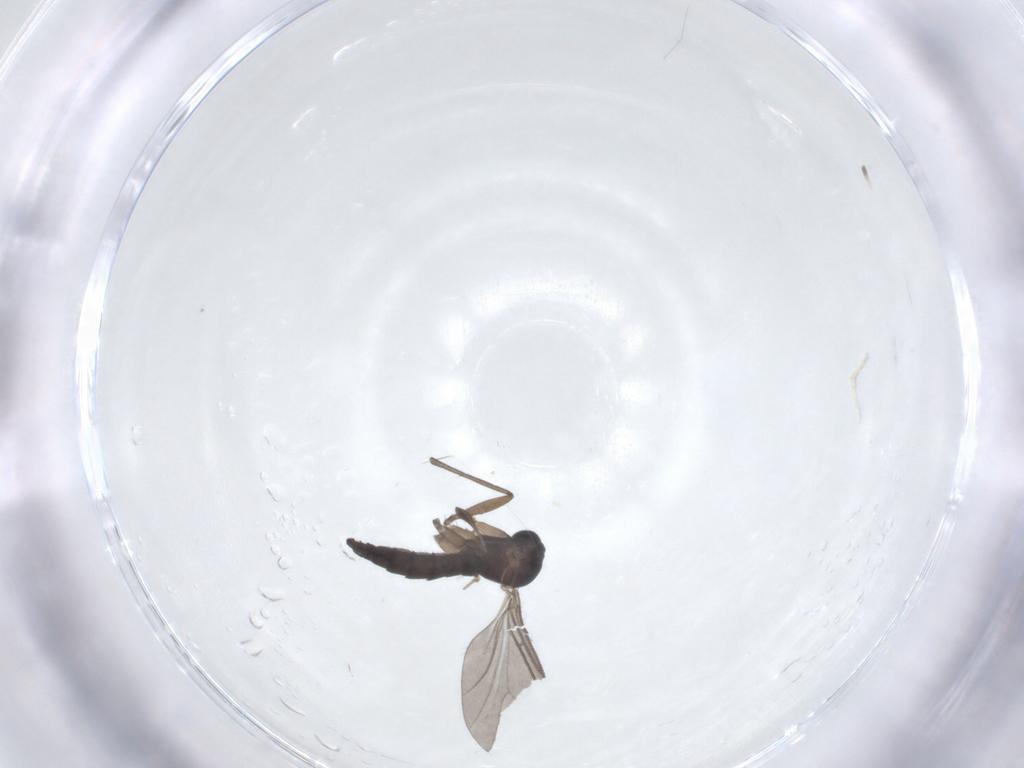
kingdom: Animalia
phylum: Arthropoda
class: Insecta
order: Diptera
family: Sciaridae
